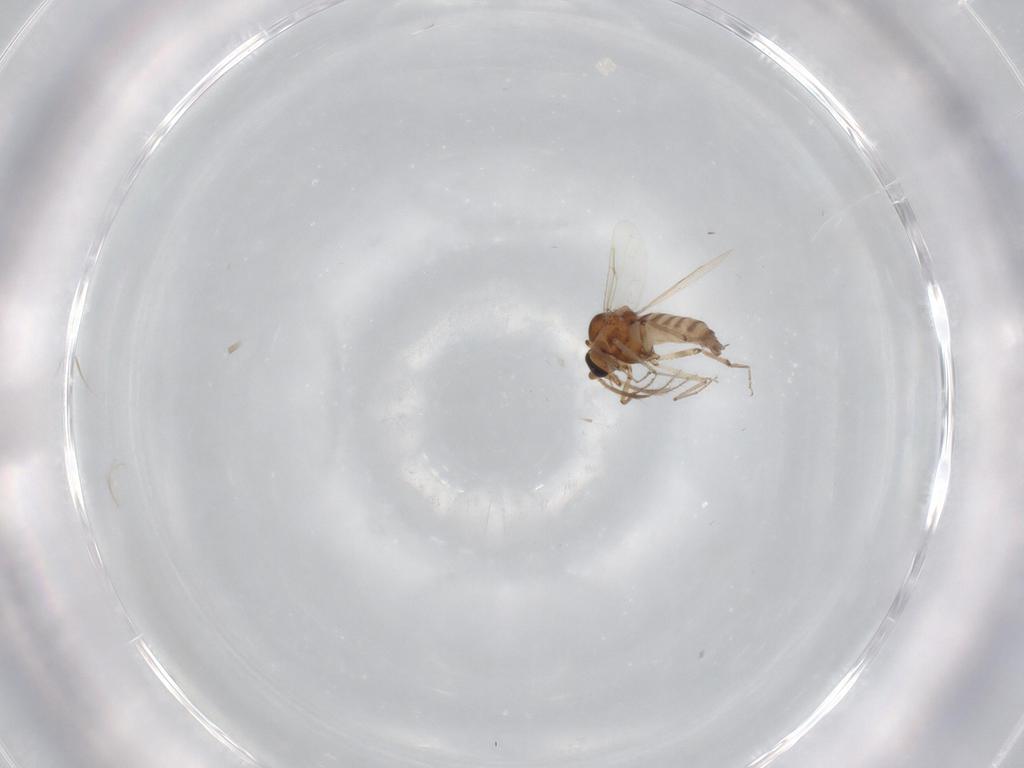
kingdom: Animalia
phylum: Arthropoda
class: Insecta
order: Diptera
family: Ceratopogonidae
